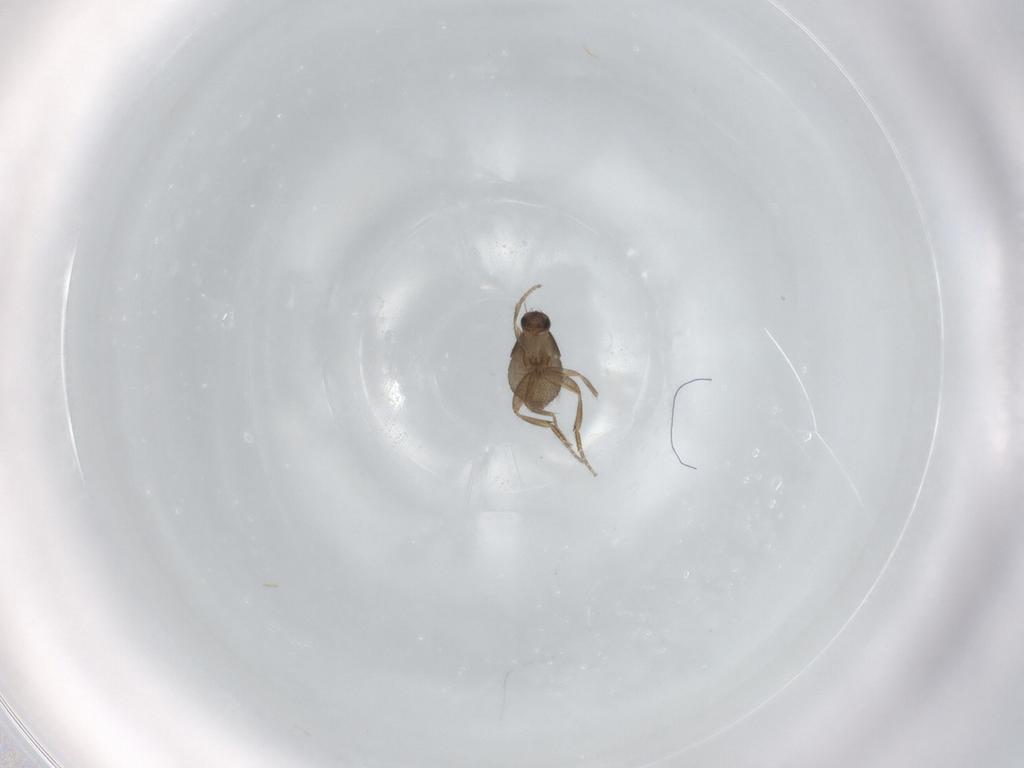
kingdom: Animalia
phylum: Arthropoda
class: Insecta
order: Diptera
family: Phoridae
